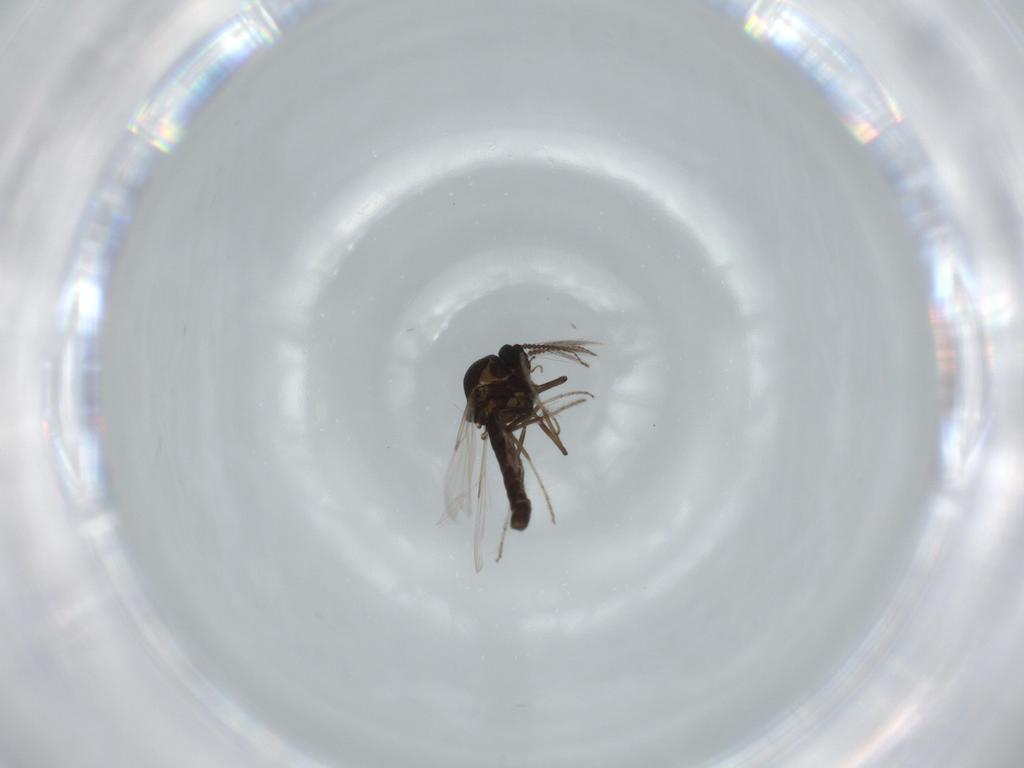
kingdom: Animalia
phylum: Arthropoda
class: Insecta
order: Diptera
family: Ceratopogonidae
